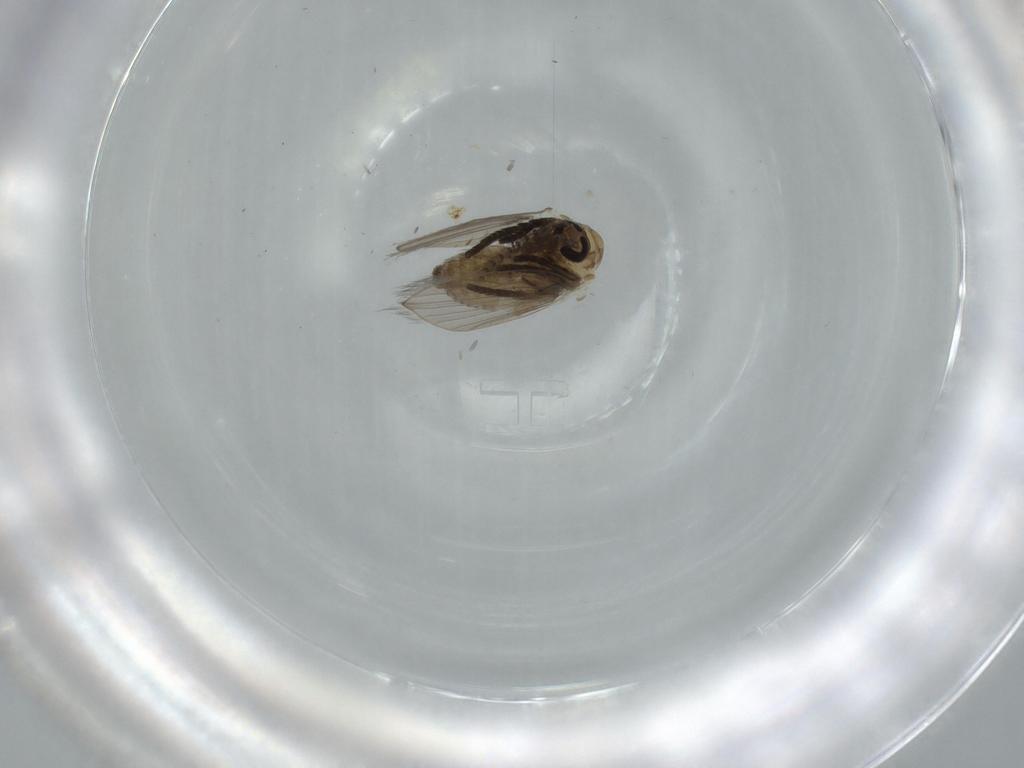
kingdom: Animalia
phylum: Arthropoda
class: Insecta
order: Diptera
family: Psychodidae
